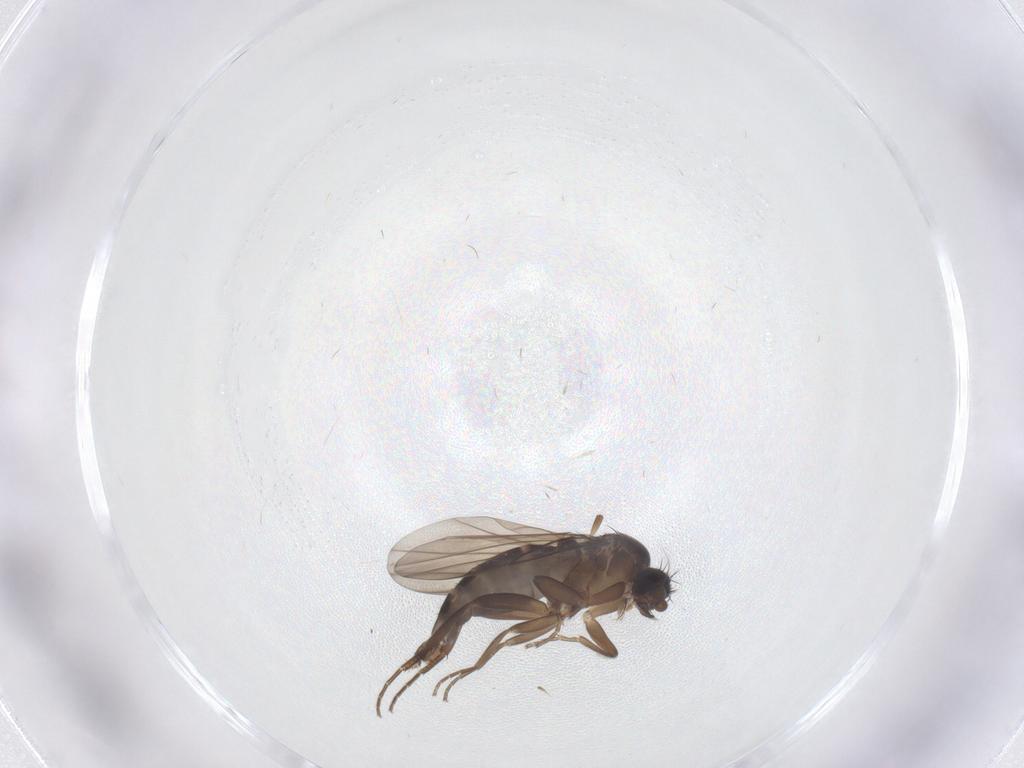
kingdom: Animalia
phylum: Arthropoda
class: Insecta
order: Diptera
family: Phoridae
